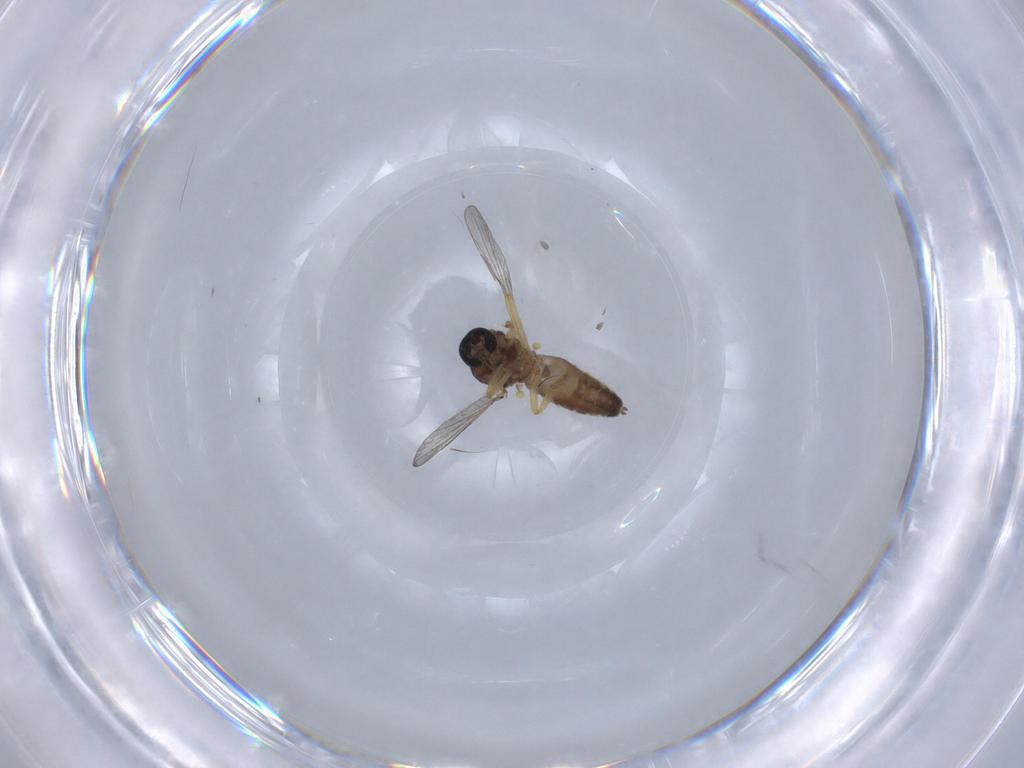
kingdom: Animalia
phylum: Arthropoda
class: Insecta
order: Diptera
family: Ceratopogonidae
